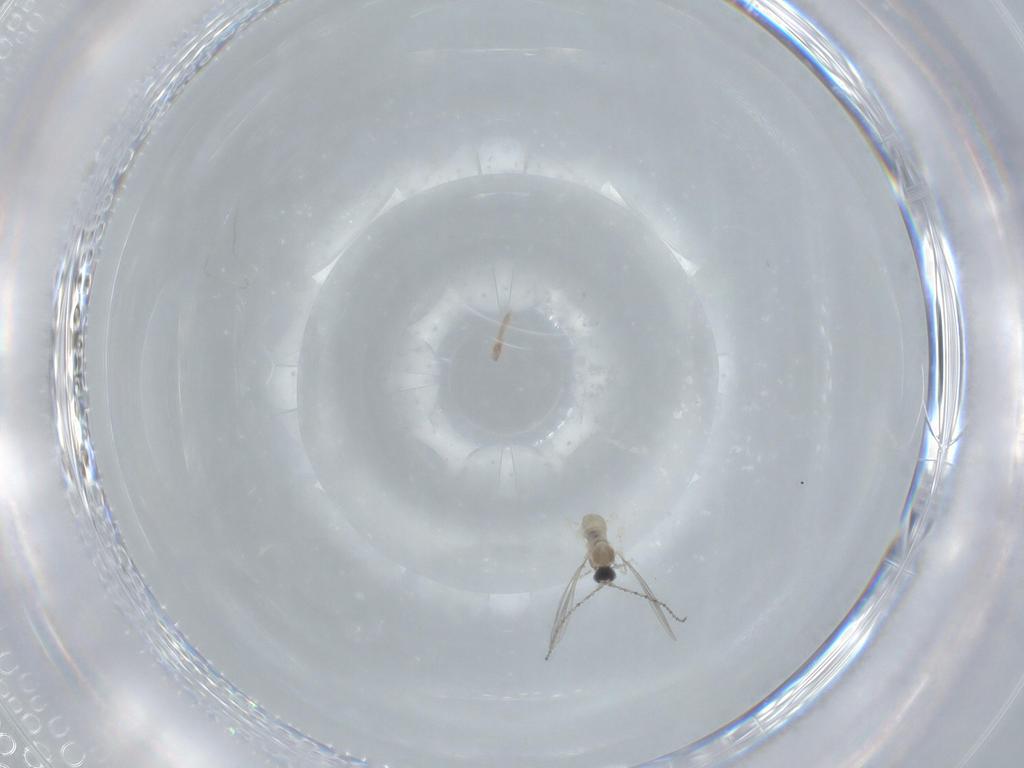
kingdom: Animalia
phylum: Arthropoda
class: Insecta
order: Diptera
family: Cecidomyiidae
